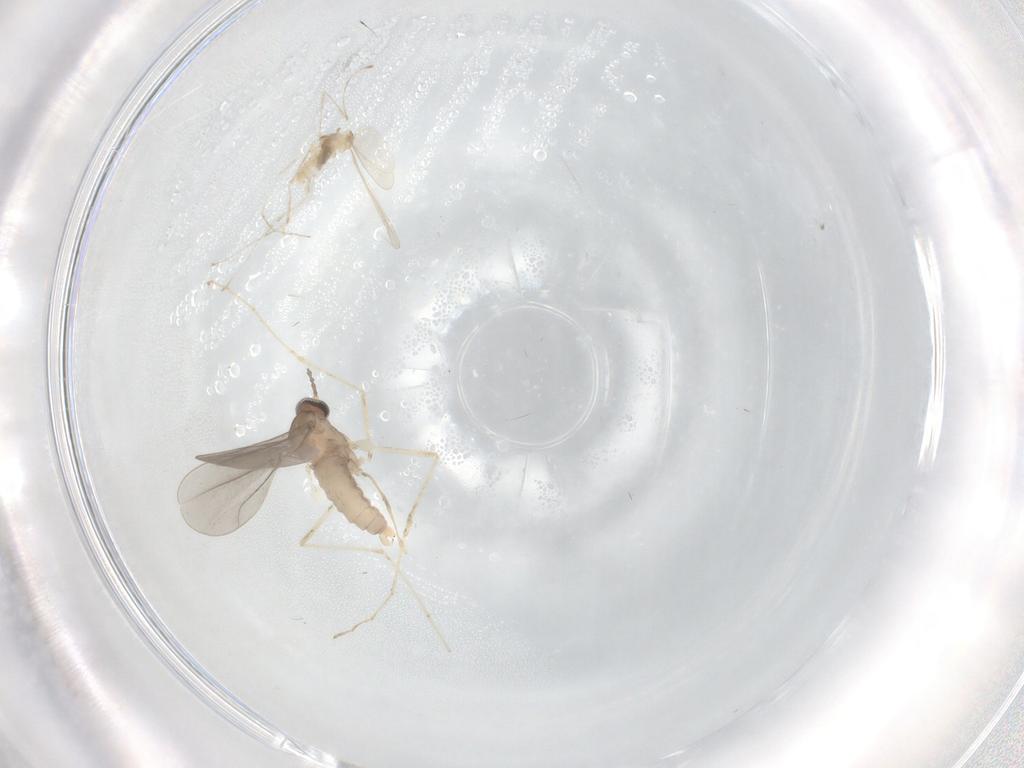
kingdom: Animalia
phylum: Arthropoda
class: Insecta
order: Diptera
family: Cecidomyiidae
